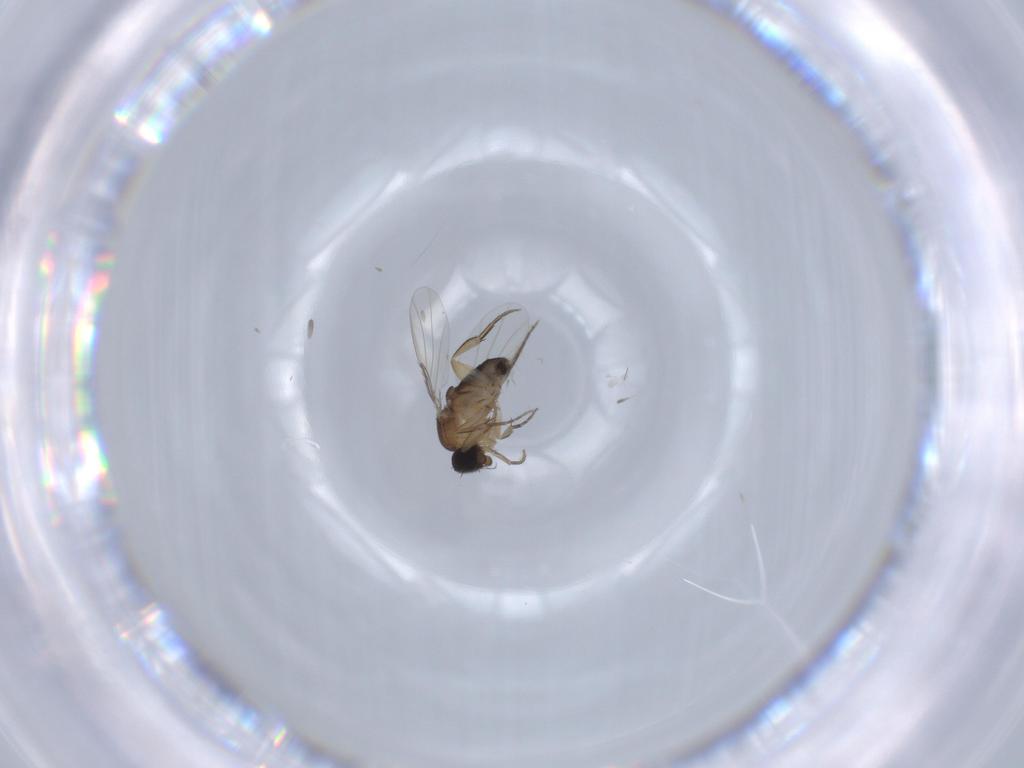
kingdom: Animalia
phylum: Arthropoda
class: Insecta
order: Diptera
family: Phoridae
